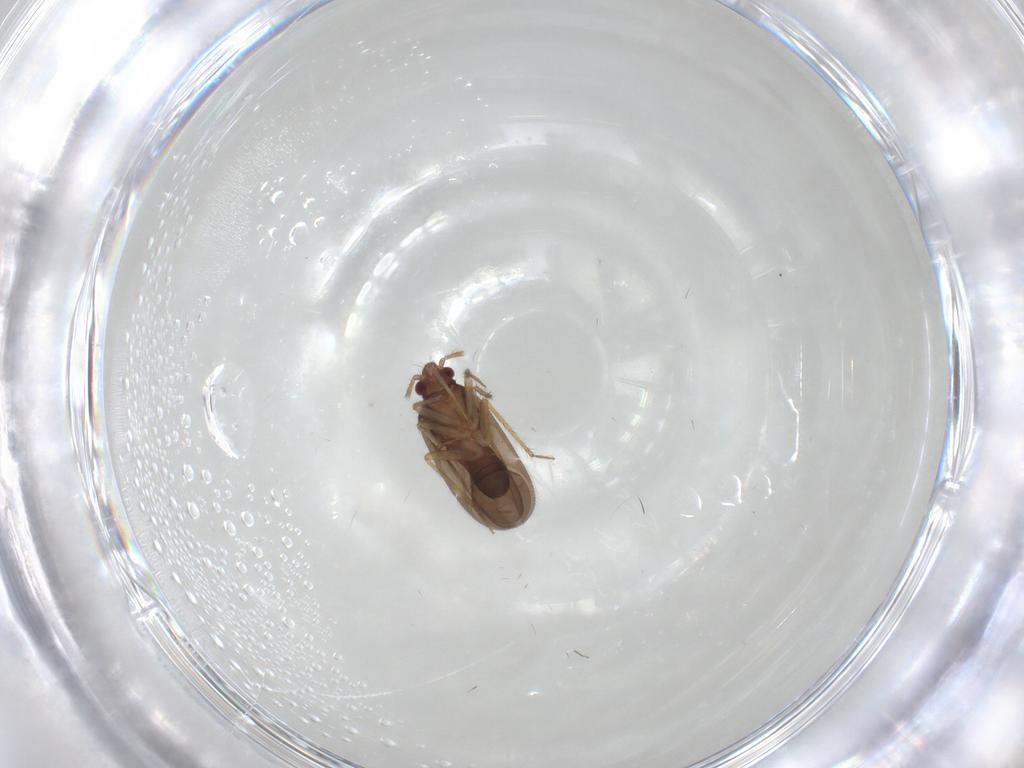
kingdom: Animalia
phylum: Arthropoda
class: Insecta
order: Hemiptera
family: Ceratocombidae
